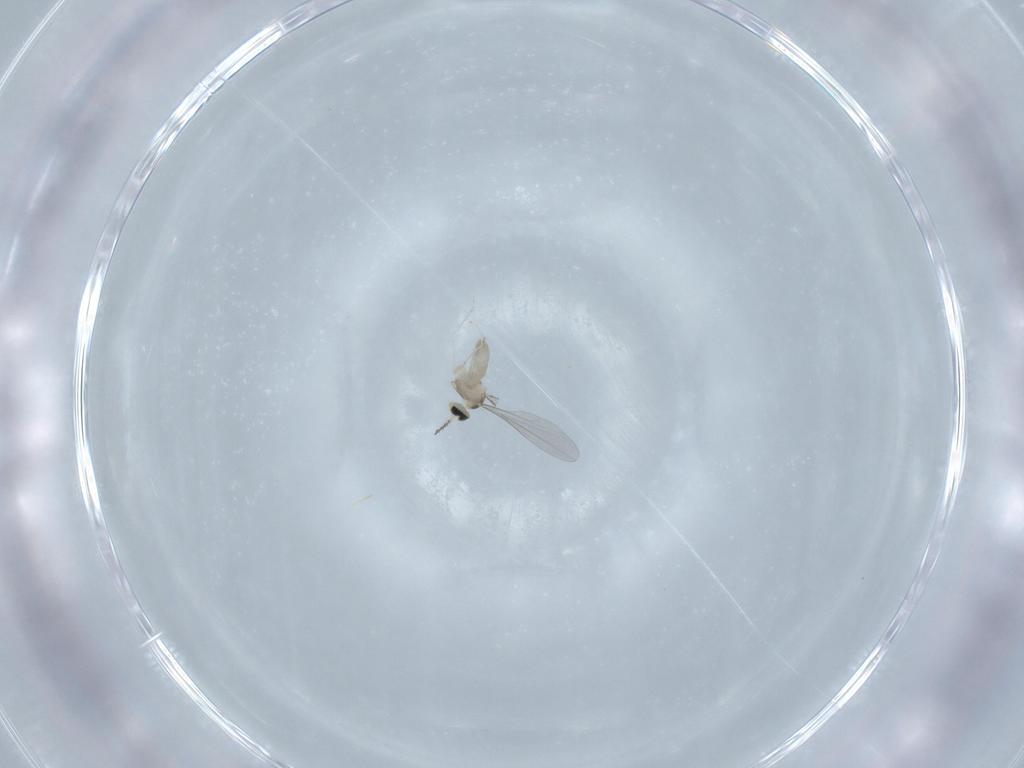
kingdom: Animalia
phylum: Arthropoda
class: Insecta
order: Diptera
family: Cecidomyiidae
